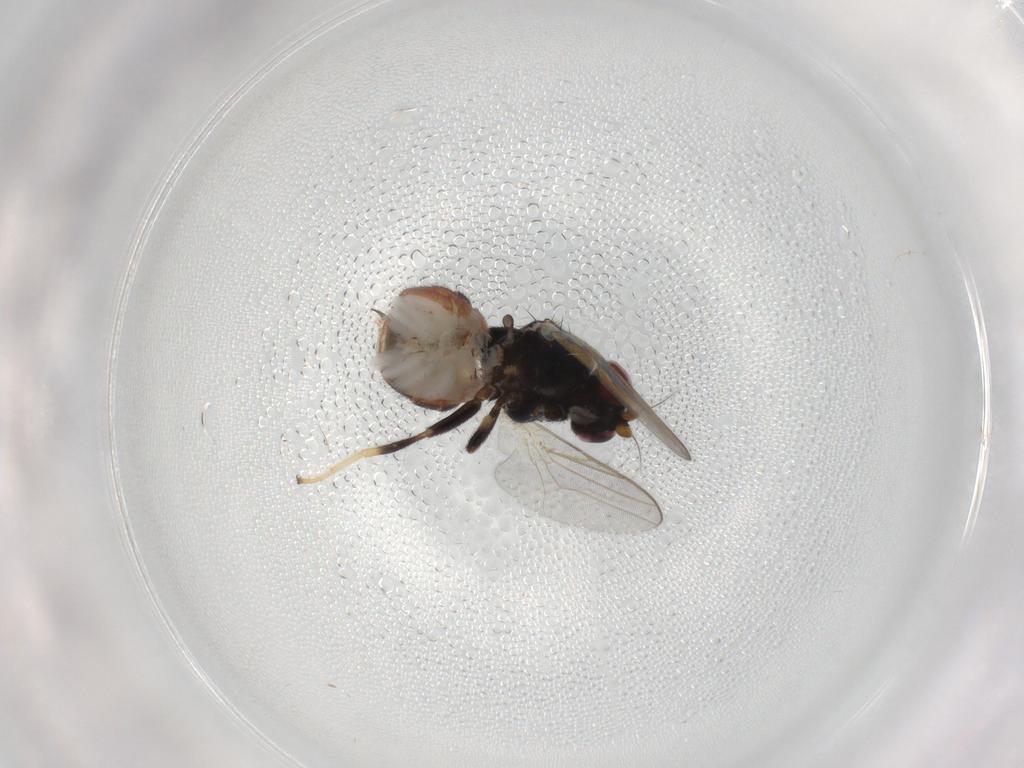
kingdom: Animalia
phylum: Arthropoda
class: Insecta
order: Diptera
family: Chloropidae
